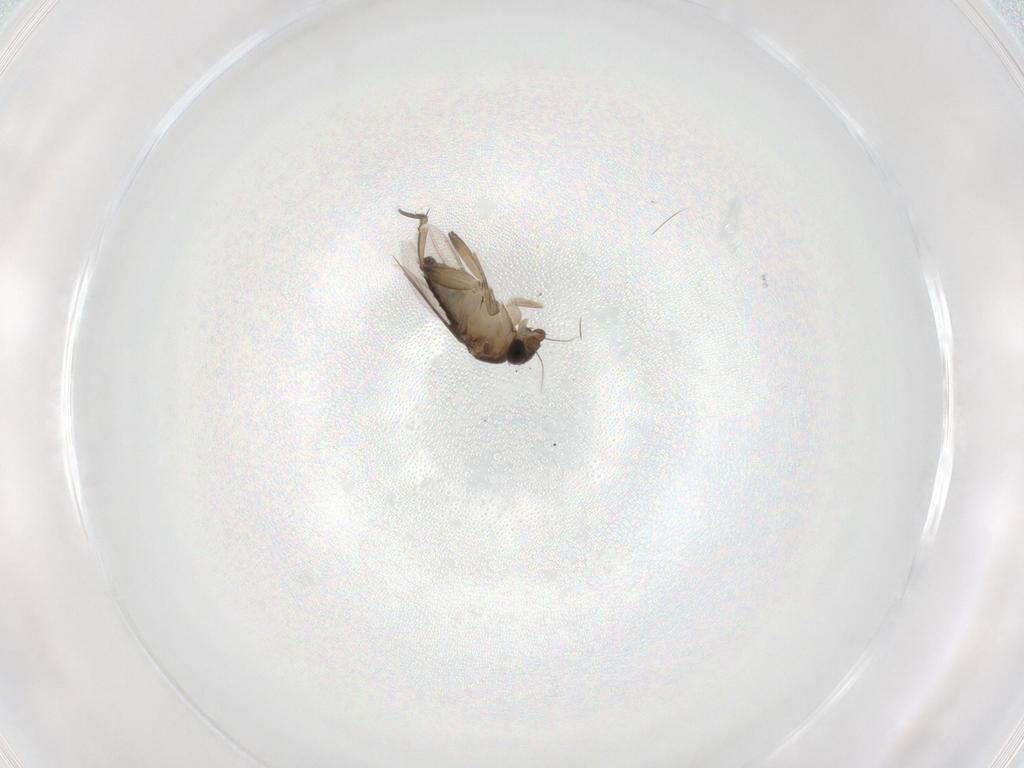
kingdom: Animalia
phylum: Arthropoda
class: Insecta
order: Diptera
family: Phoridae
